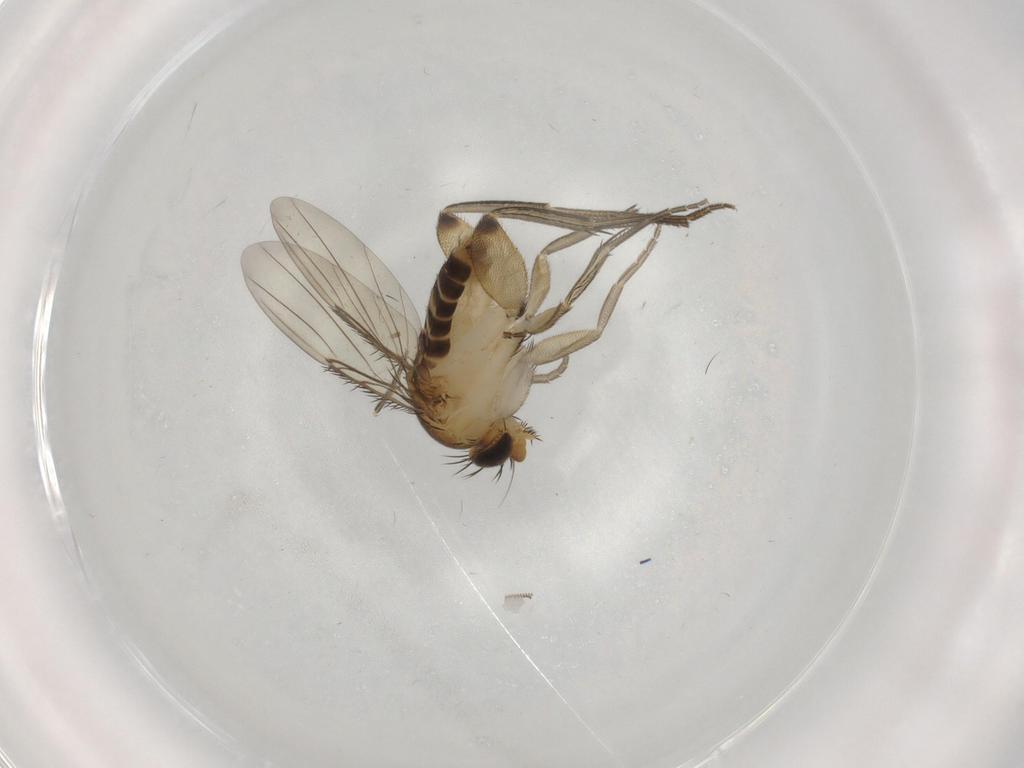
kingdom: Animalia
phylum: Arthropoda
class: Insecta
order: Diptera
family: Phoridae
